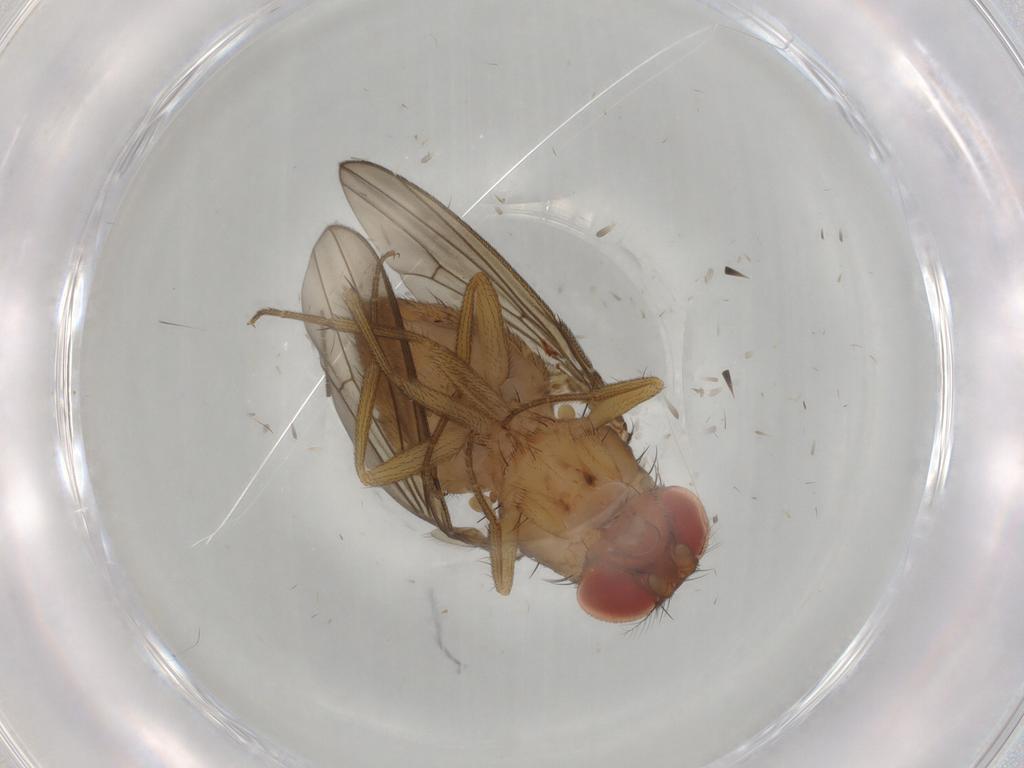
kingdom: Animalia
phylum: Arthropoda
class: Insecta
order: Diptera
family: Drosophilidae
